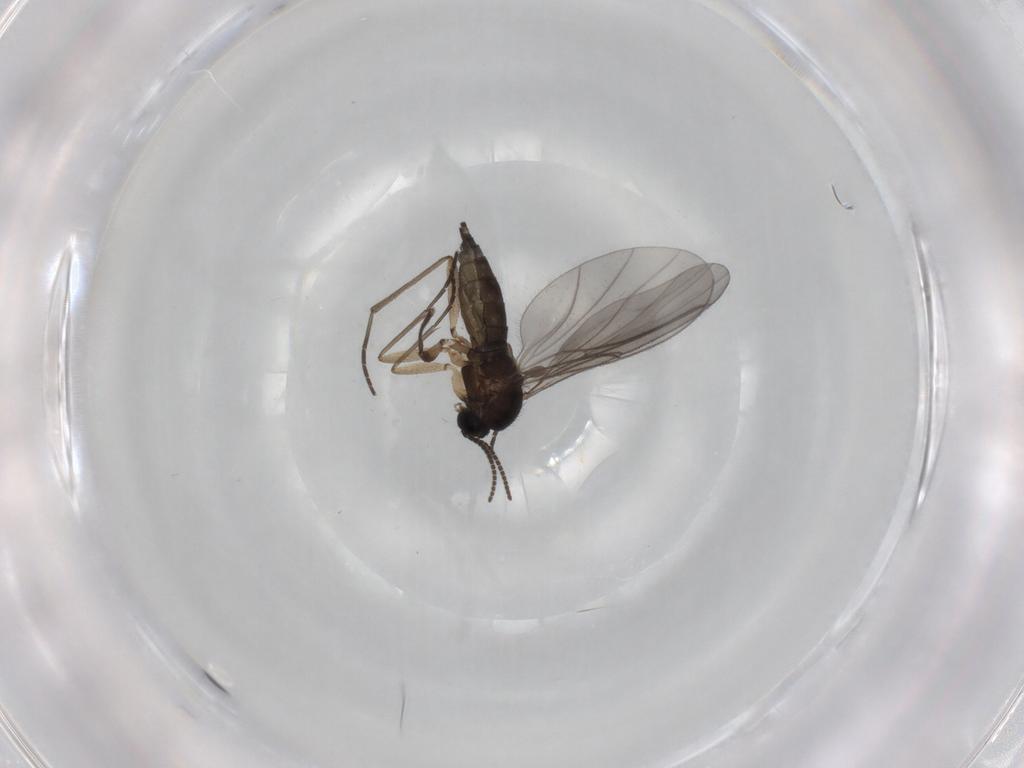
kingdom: Animalia
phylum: Arthropoda
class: Insecta
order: Diptera
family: Sciaridae
